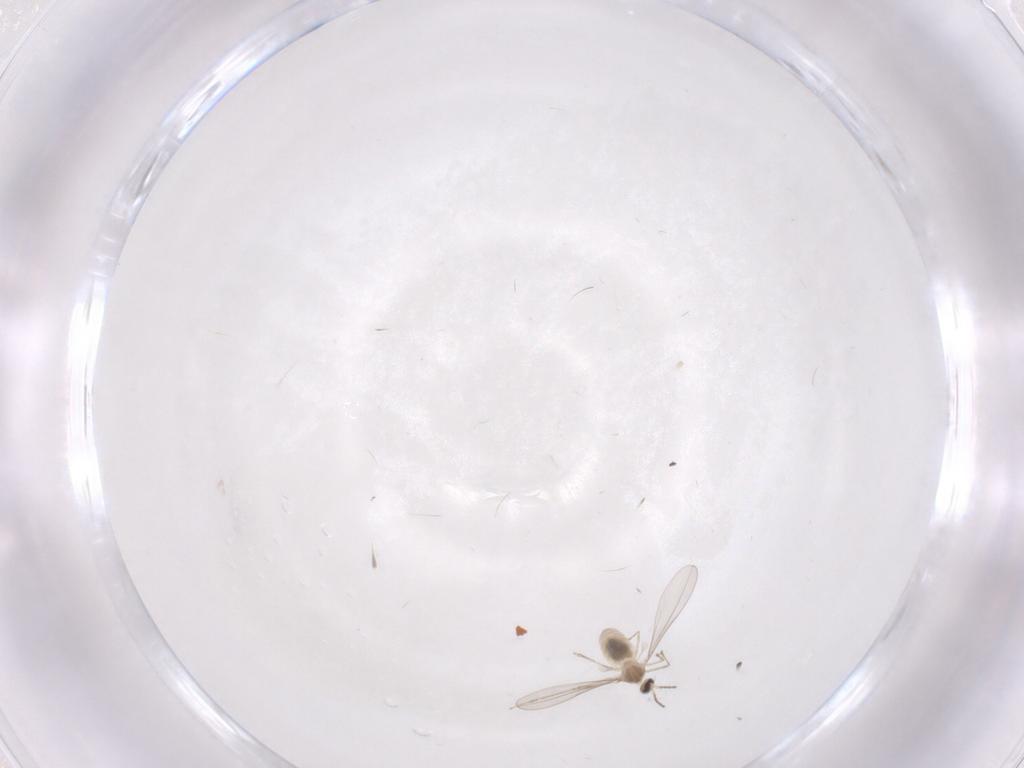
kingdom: Animalia
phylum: Arthropoda
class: Insecta
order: Diptera
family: Cecidomyiidae
